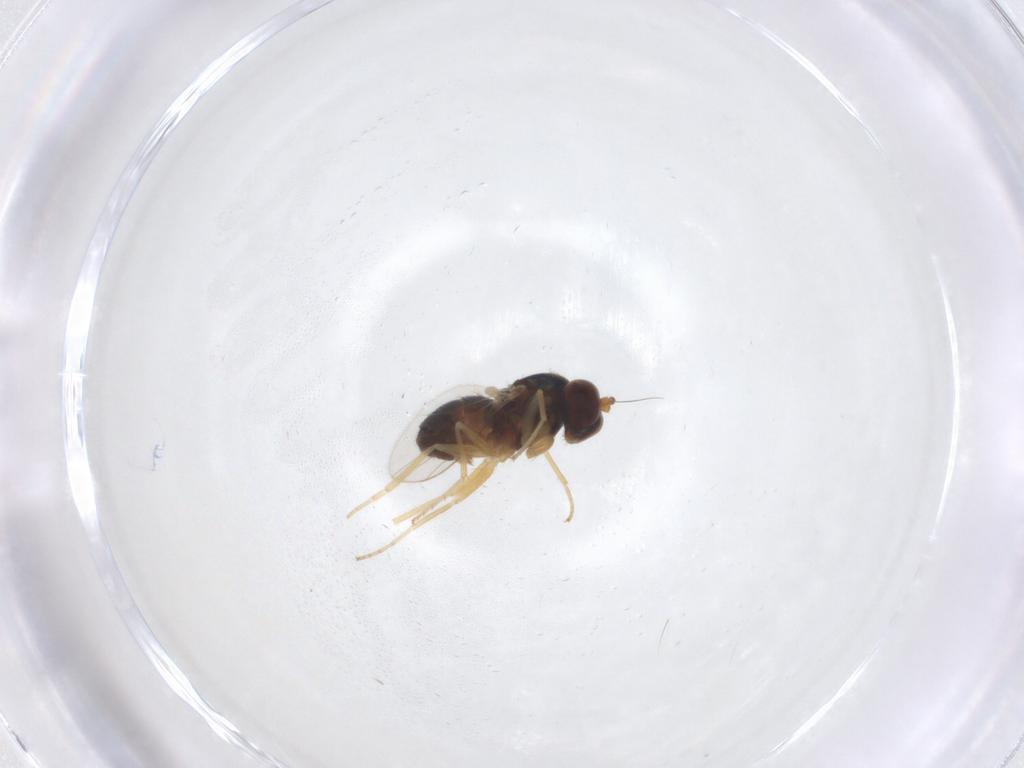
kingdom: Animalia
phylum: Arthropoda
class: Insecta
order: Diptera
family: Dolichopodidae
